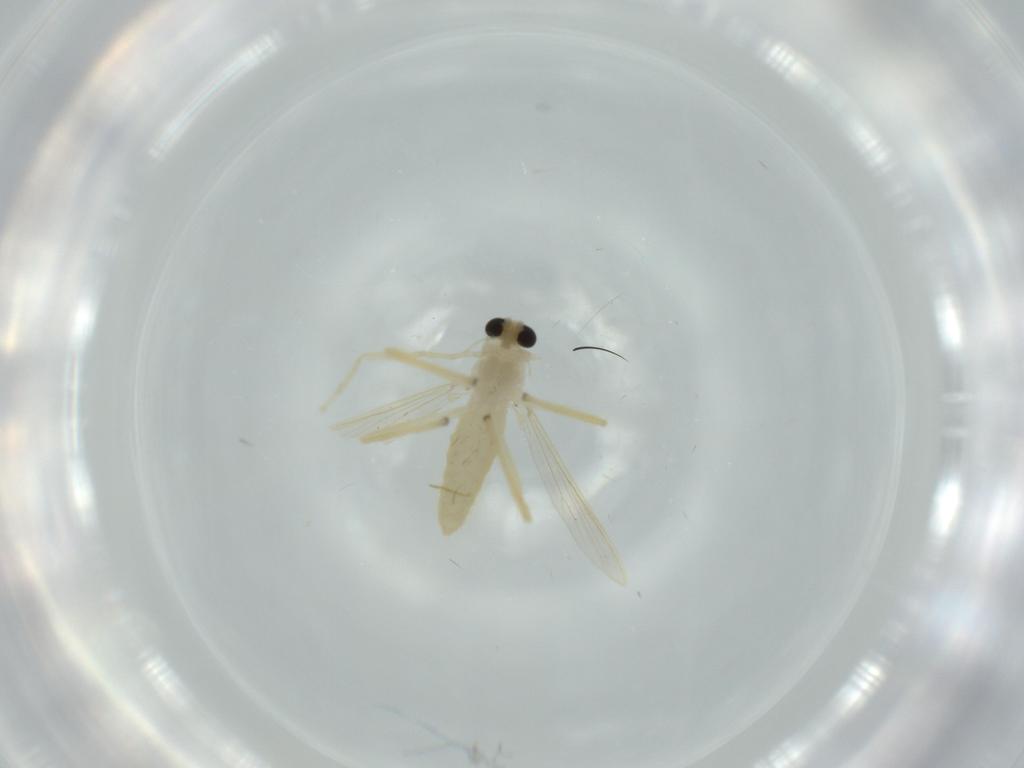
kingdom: Animalia
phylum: Arthropoda
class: Insecta
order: Diptera
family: Chironomidae
